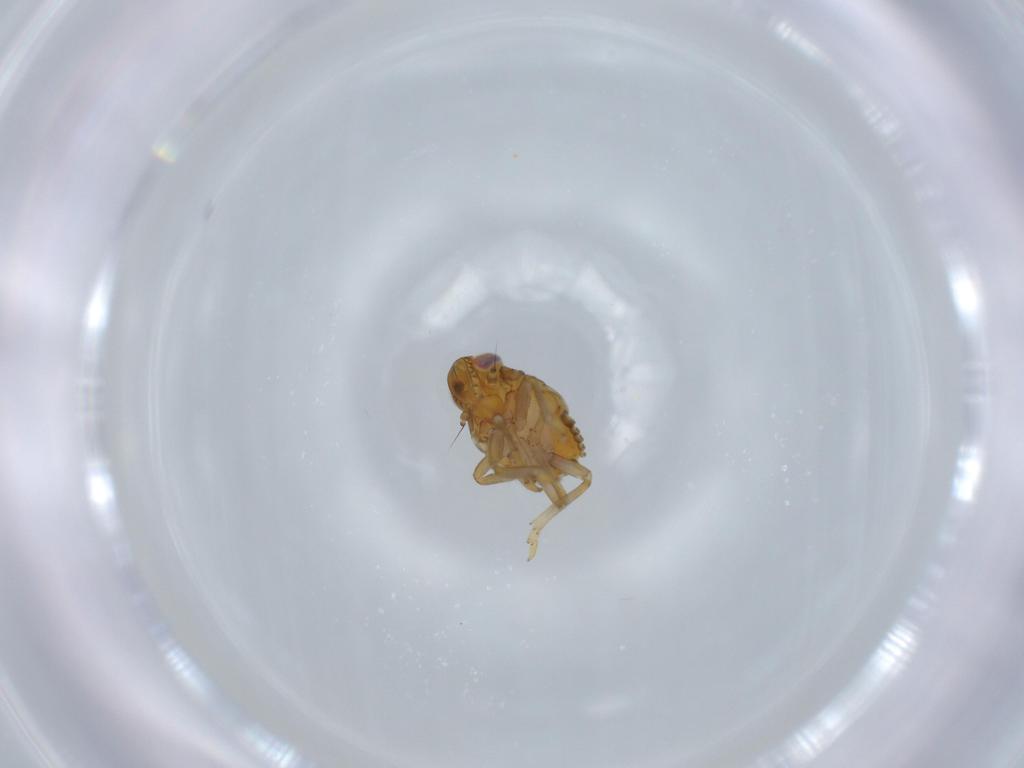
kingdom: Animalia
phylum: Arthropoda
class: Insecta
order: Hemiptera
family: Issidae
